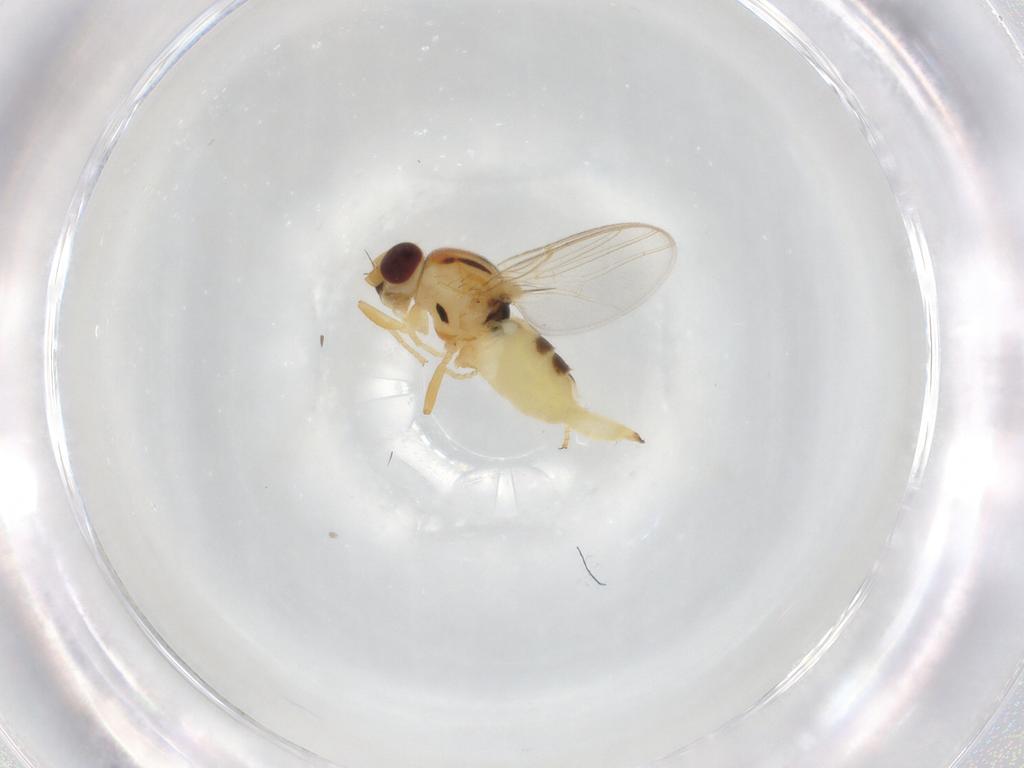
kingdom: Animalia
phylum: Arthropoda
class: Insecta
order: Diptera
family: Chloropidae
